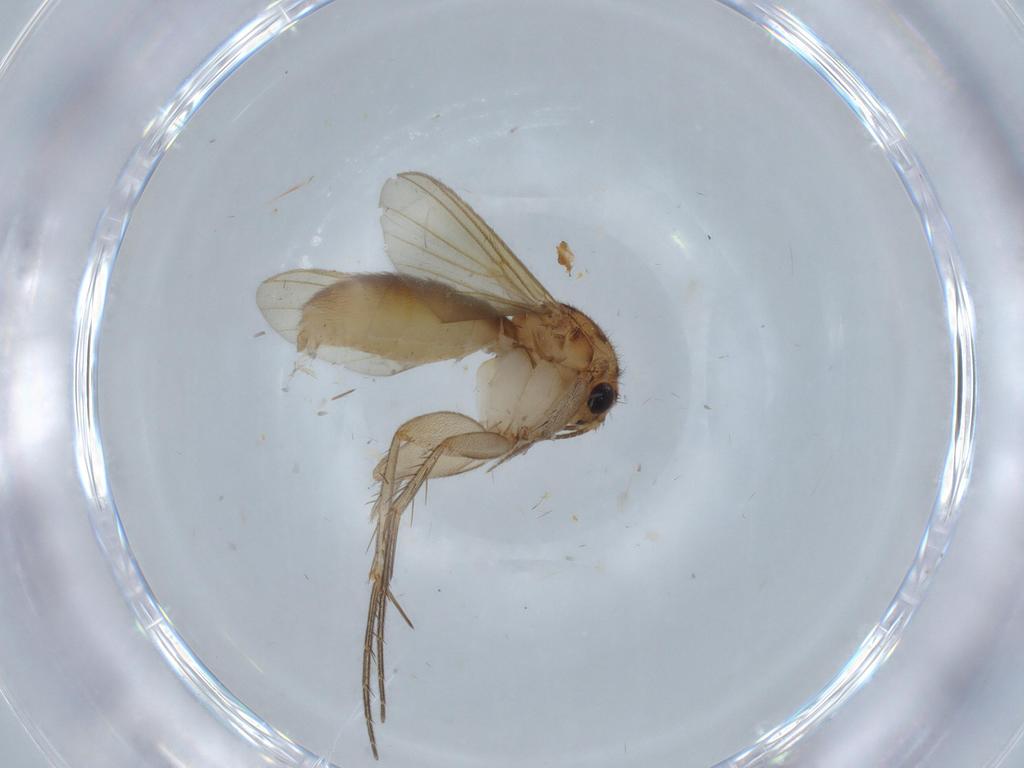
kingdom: Animalia
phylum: Arthropoda
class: Insecta
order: Diptera
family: Mycetophilidae
